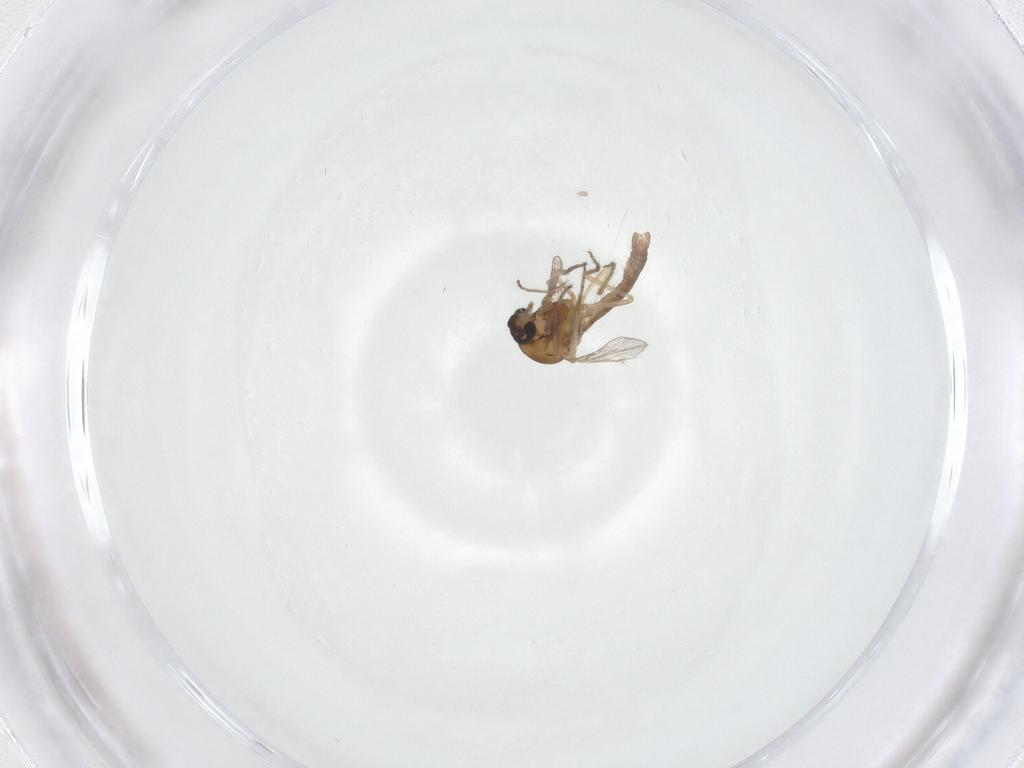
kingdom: Animalia
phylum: Arthropoda
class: Insecta
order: Diptera
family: Ceratopogonidae
